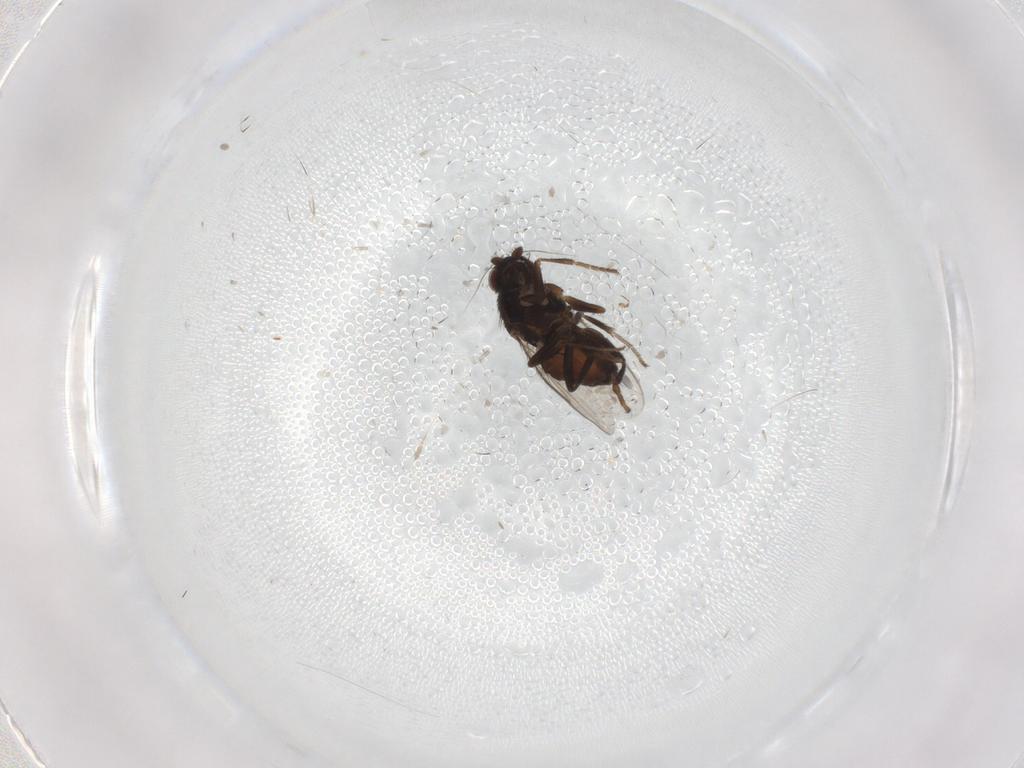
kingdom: Animalia
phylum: Arthropoda
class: Insecta
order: Diptera
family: Sphaeroceridae
